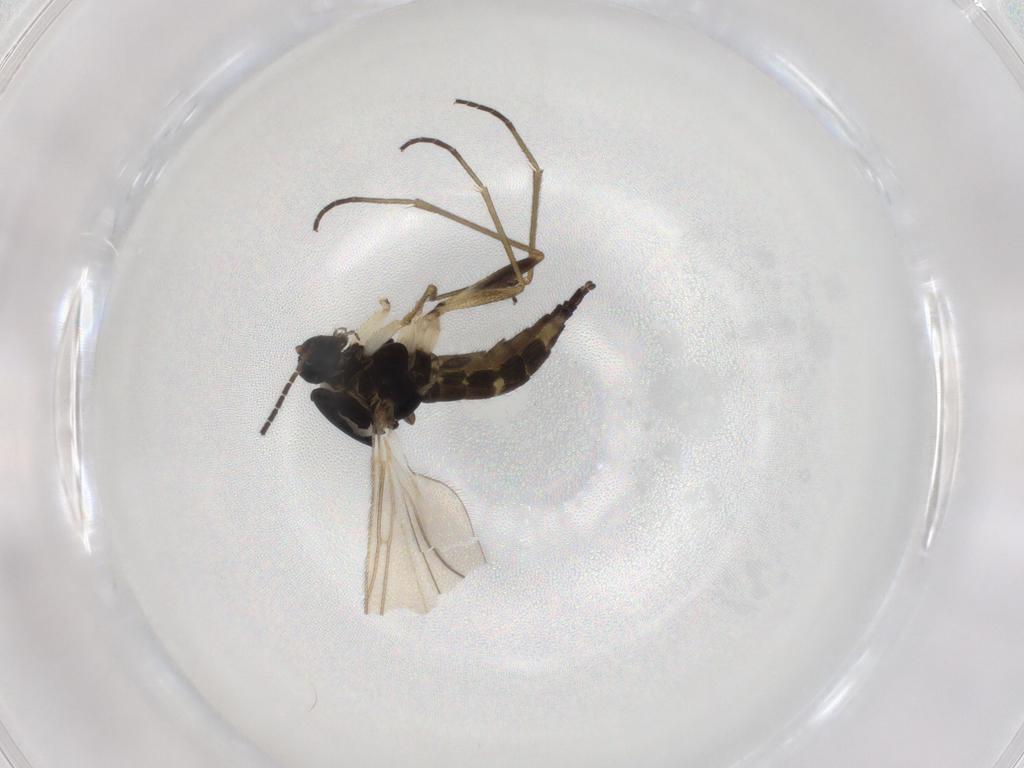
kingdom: Animalia
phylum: Arthropoda
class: Insecta
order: Diptera
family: Sciaridae
